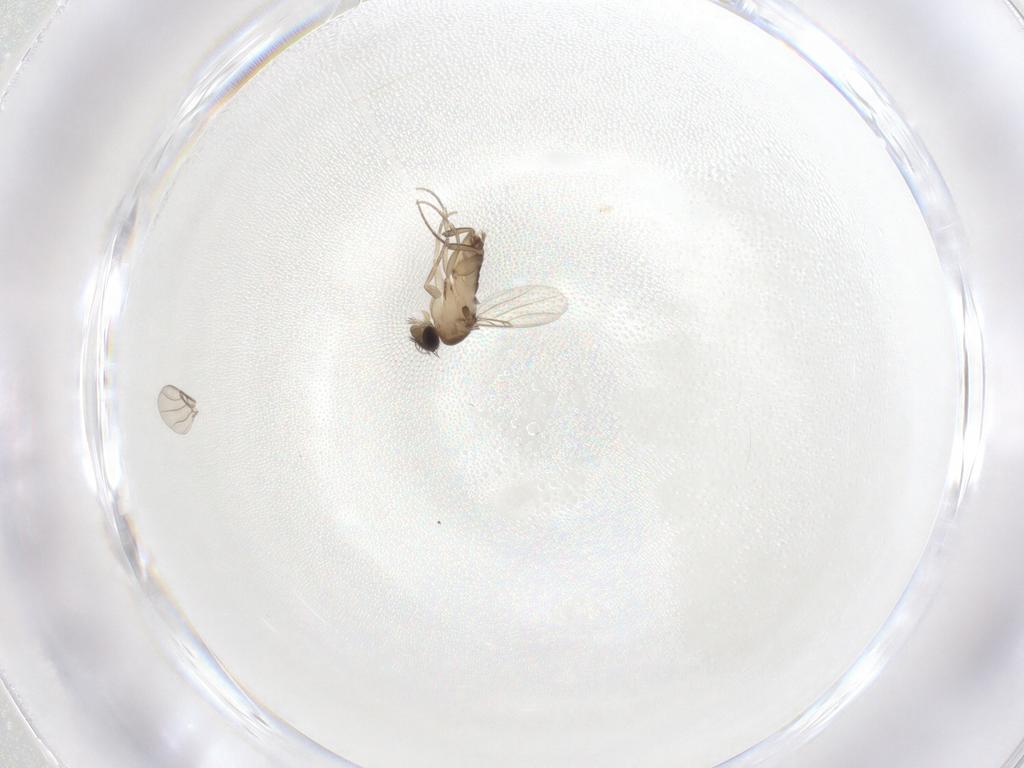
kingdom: Animalia
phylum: Arthropoda
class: Insecta
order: Diptera
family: Phoridae
